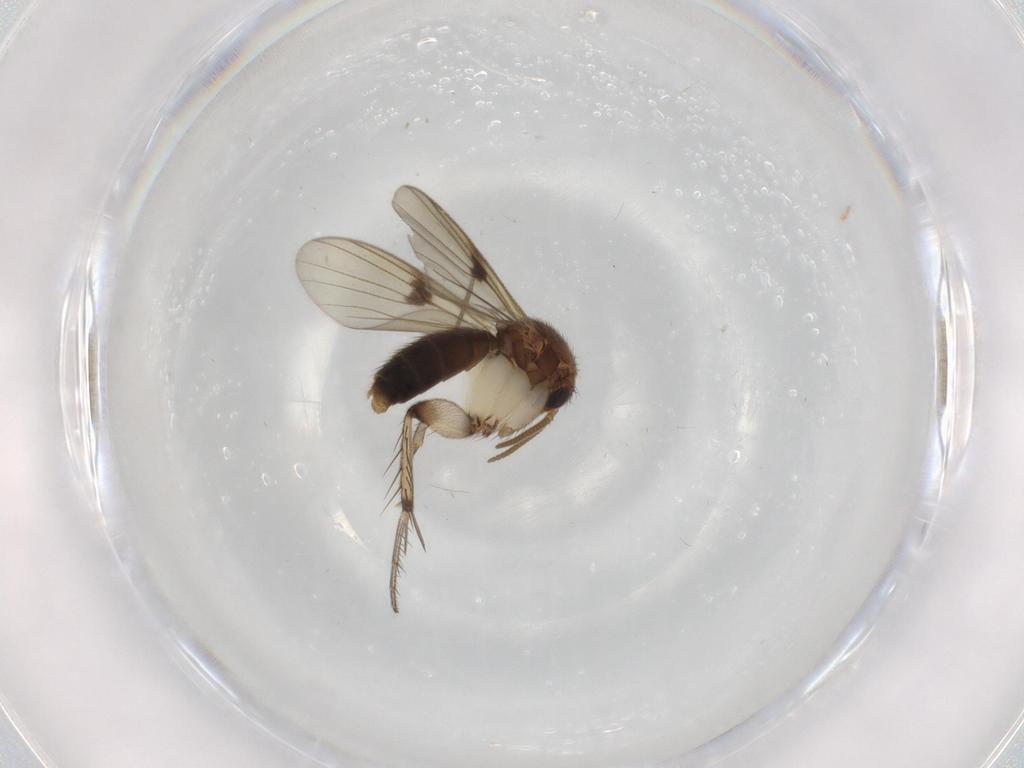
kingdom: Animalia
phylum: Arthropoda
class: Insecta
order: Diptera
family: Mycetophilidae
